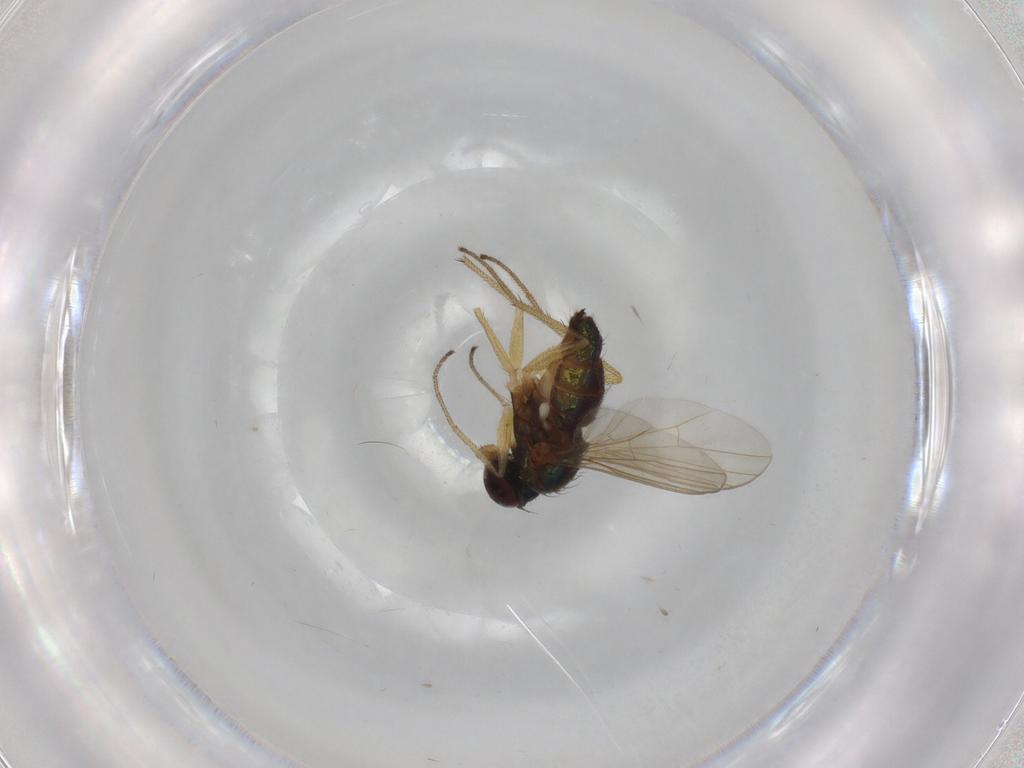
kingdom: Animalia
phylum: Arthropoda
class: Insecta
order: Diptera
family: Cecidomyiidae
